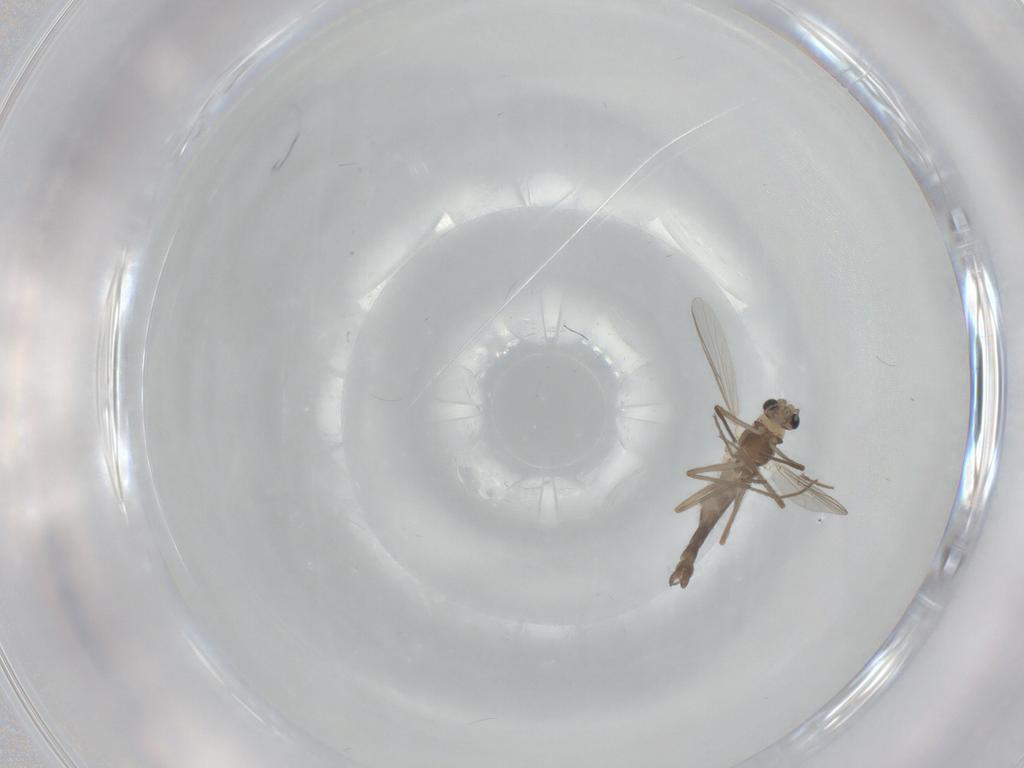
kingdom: Animalia
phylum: Arthropoda
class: Insecta
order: Diptera
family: Chironomidae
